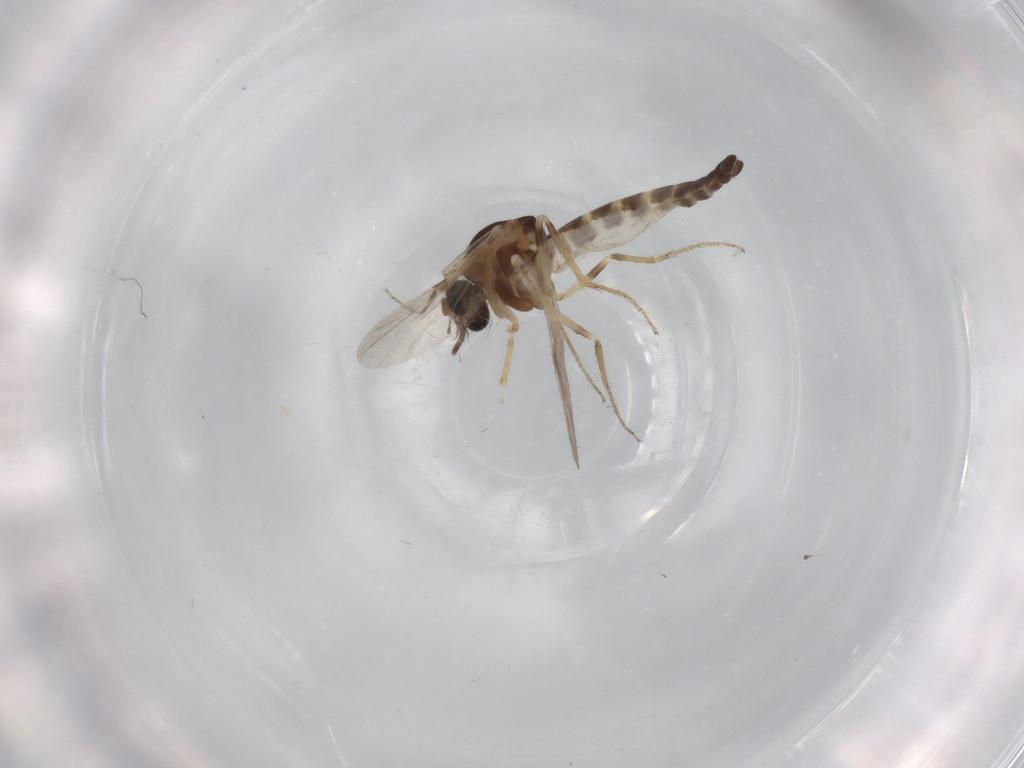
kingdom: Animalia
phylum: Arthropoda
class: Insecta
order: Diptera
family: Ceratopogonidae
